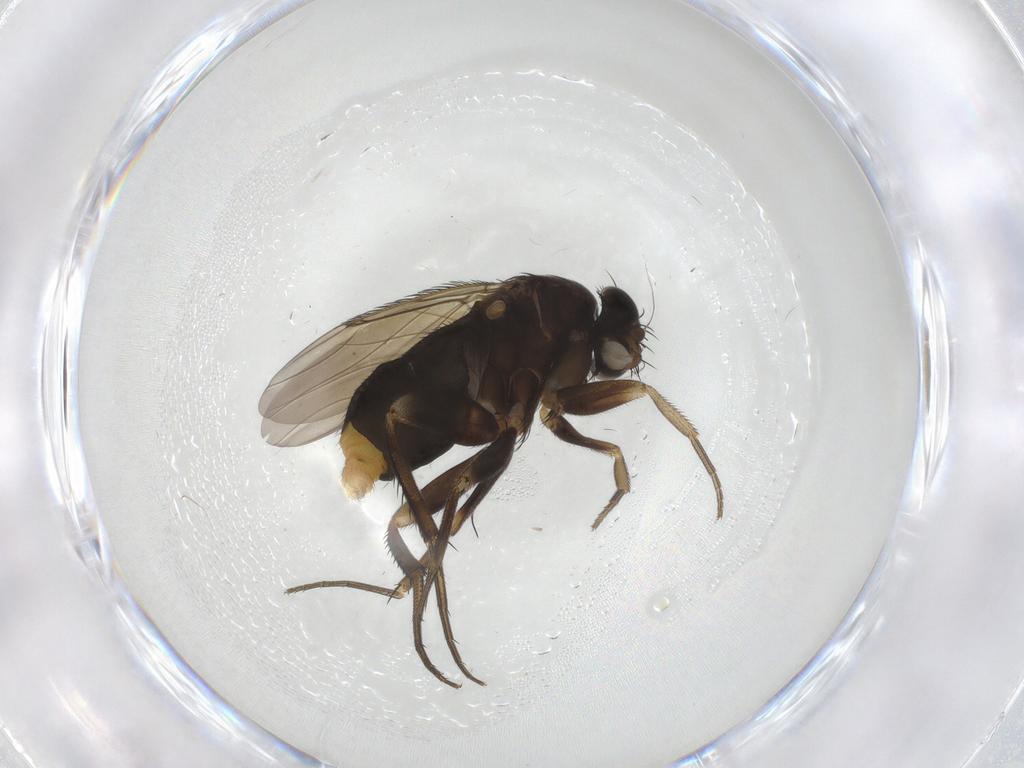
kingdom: Animalia
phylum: Arthropoda
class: Insecta
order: Diptera
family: Phoridae
